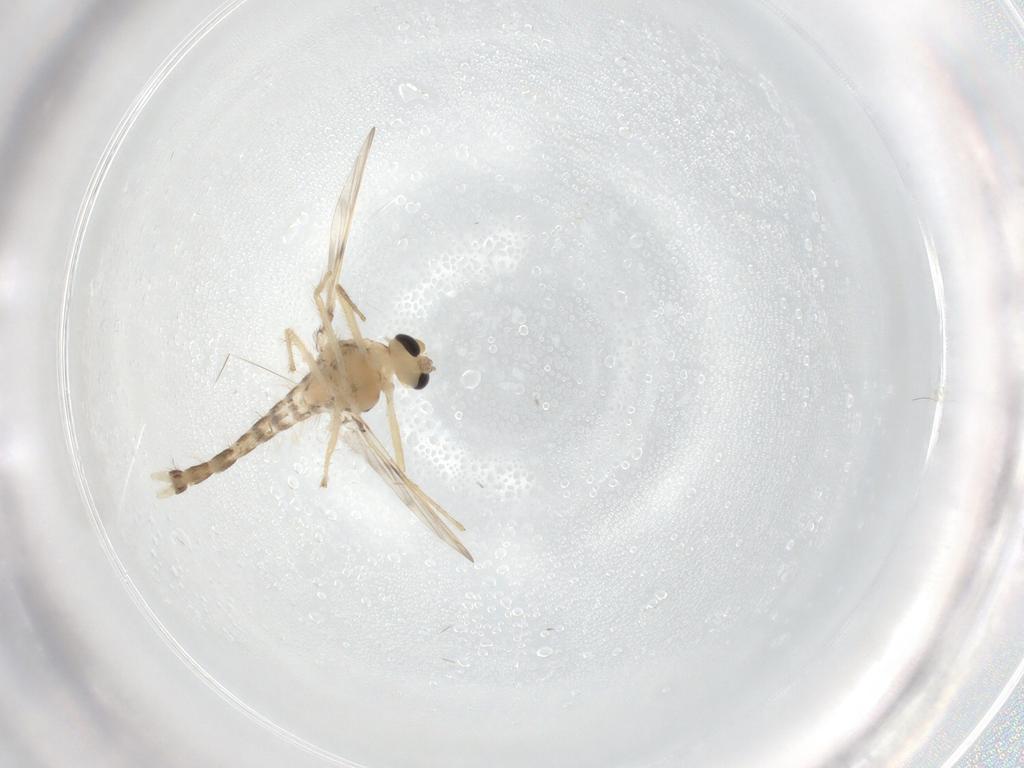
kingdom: Animalia
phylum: Arthropoda
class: Insecta
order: Diptera
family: Chironomidae
